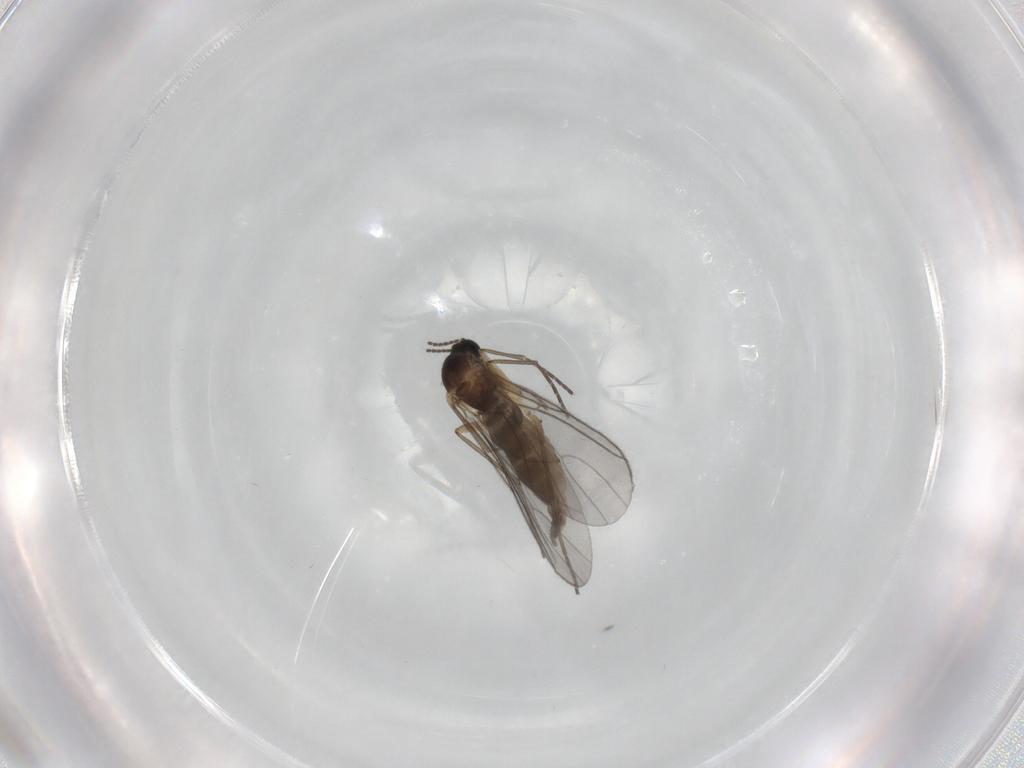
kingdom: Animalia
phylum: Arthropoda
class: Insecta
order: Diptera
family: Sciaridae
